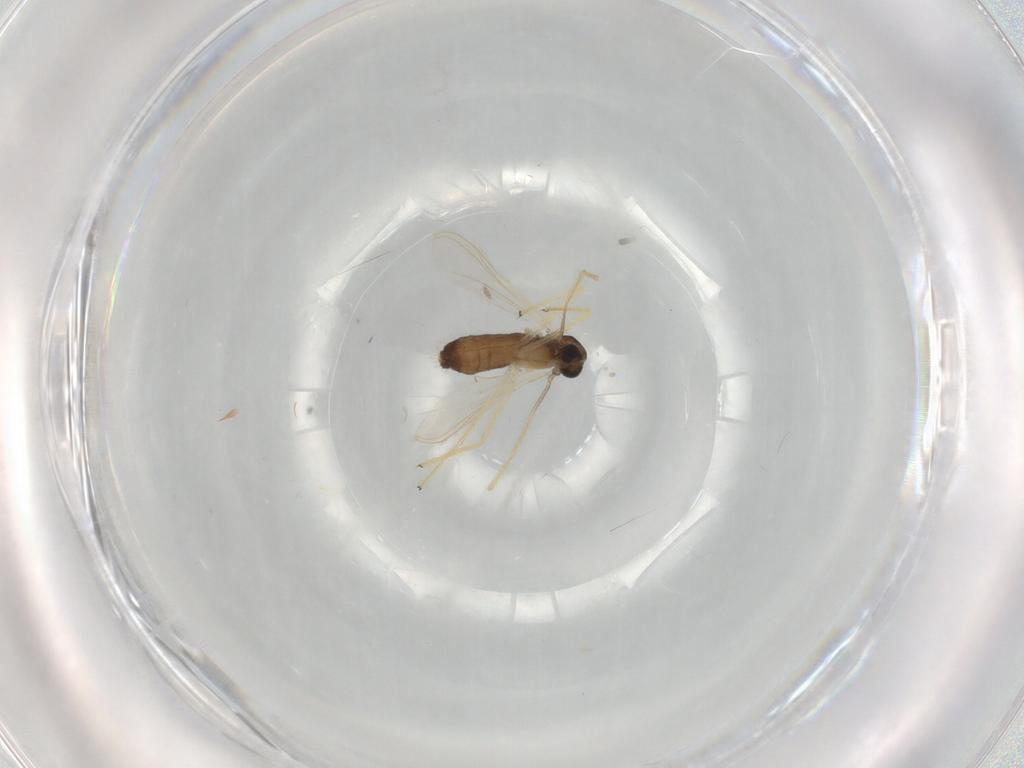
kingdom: Animalia
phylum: Arthropoda
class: Insecta
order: Diptera
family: Chironomidae
